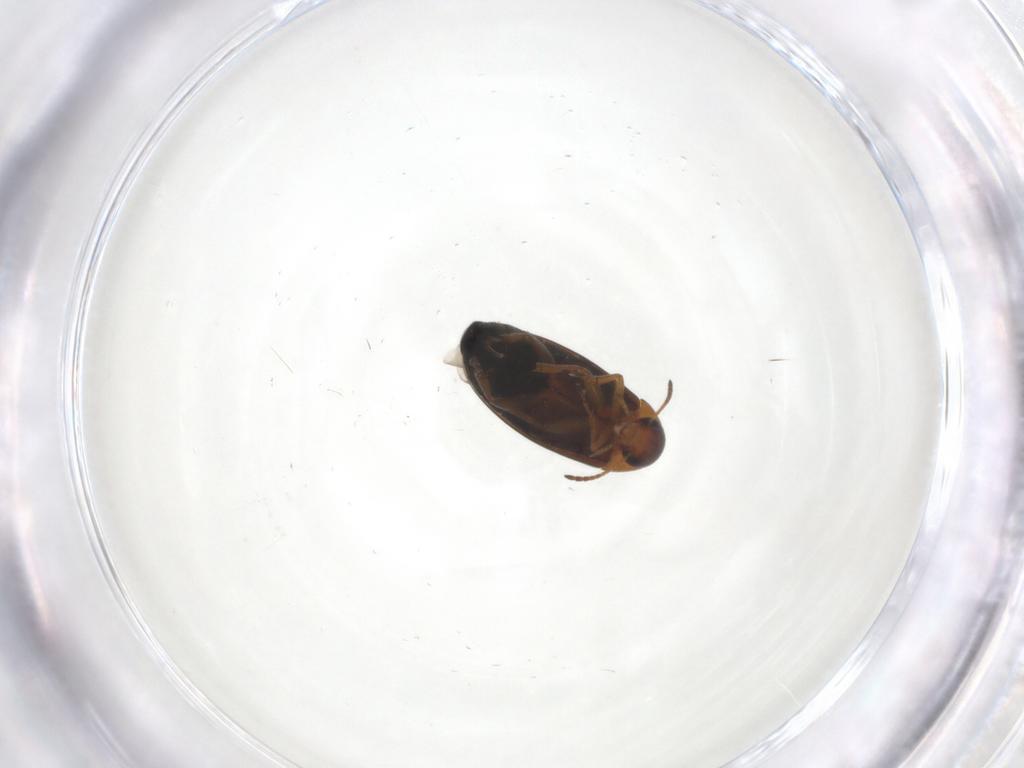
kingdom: Animalia
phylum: Arthropoda
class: Insecta
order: Coleoptera
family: Scraptiidae
